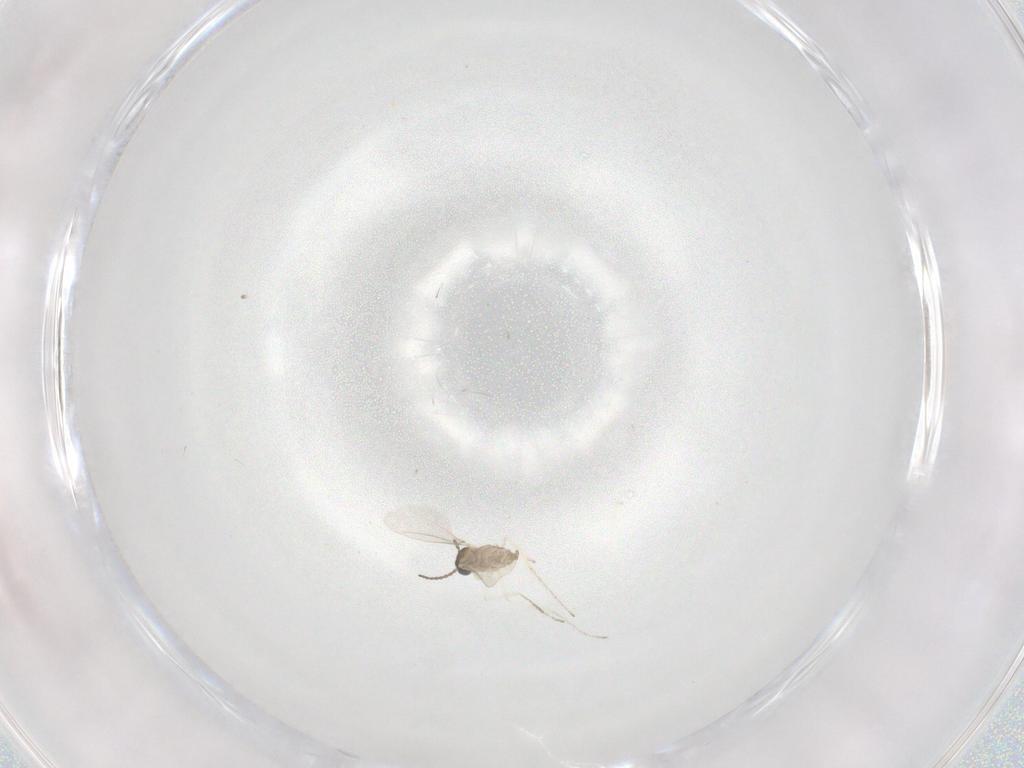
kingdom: Animalia
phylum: Arthropoda
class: Insecta
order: Diptera
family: Cecidomyiidae
